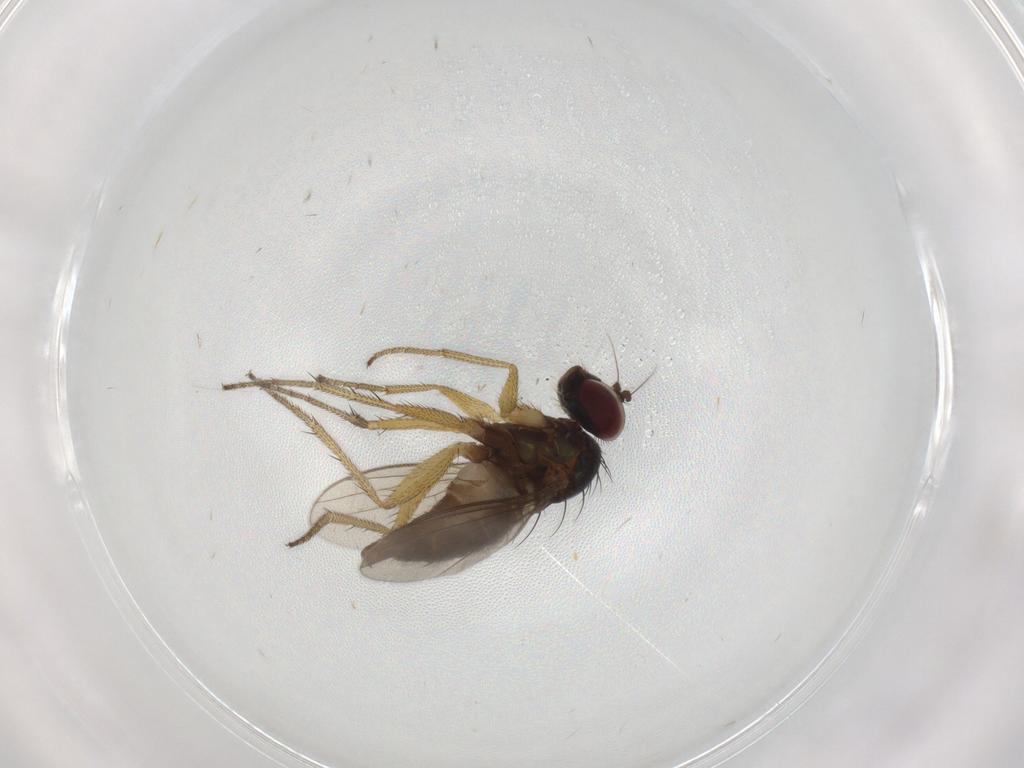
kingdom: Animalia
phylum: Arthropoda
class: Insecta
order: Diptera
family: Dolichopodidae
